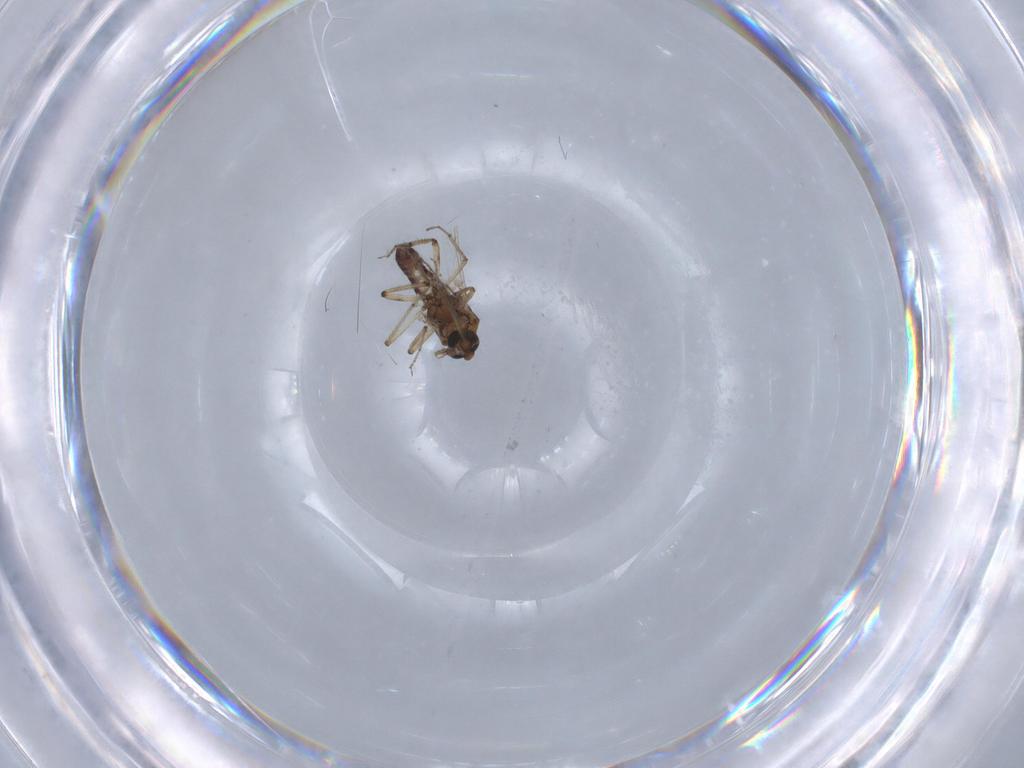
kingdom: Animalia
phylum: Arthropoda
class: Insecta
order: Diptera
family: Ceratopogonidae
